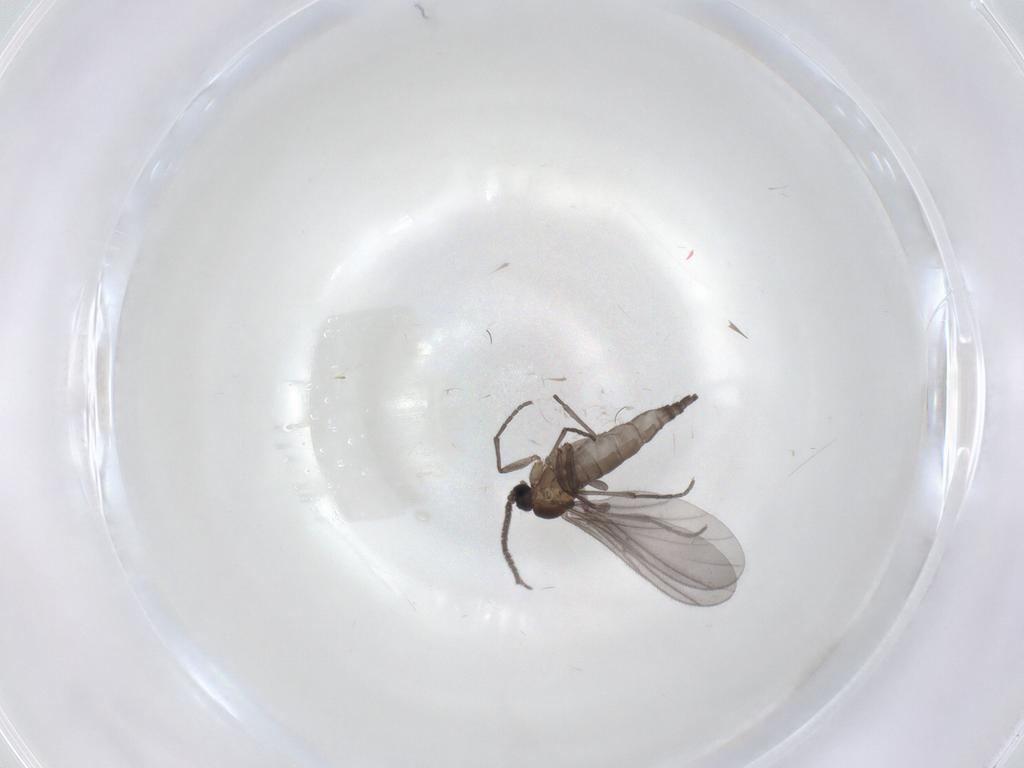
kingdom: Animalia
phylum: Arthropoda
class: Insecta
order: Diptera
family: Sciaridae
